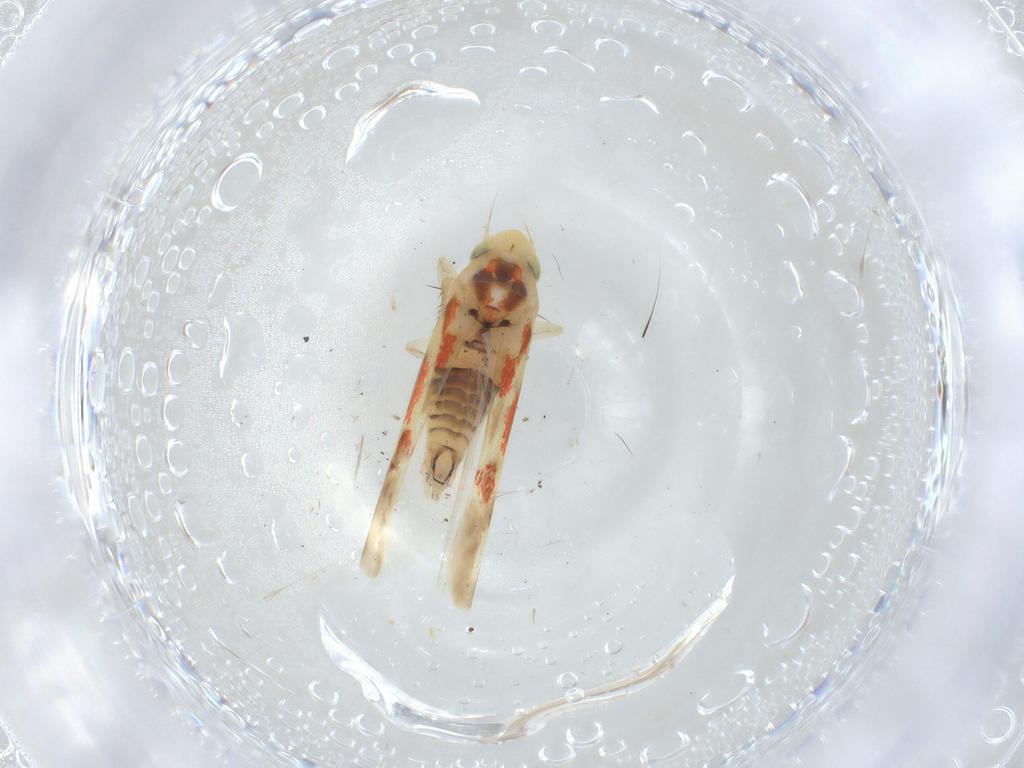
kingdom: Animalia
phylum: Arthropoda
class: Insecta
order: Hemiptera
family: Cicadellidae
